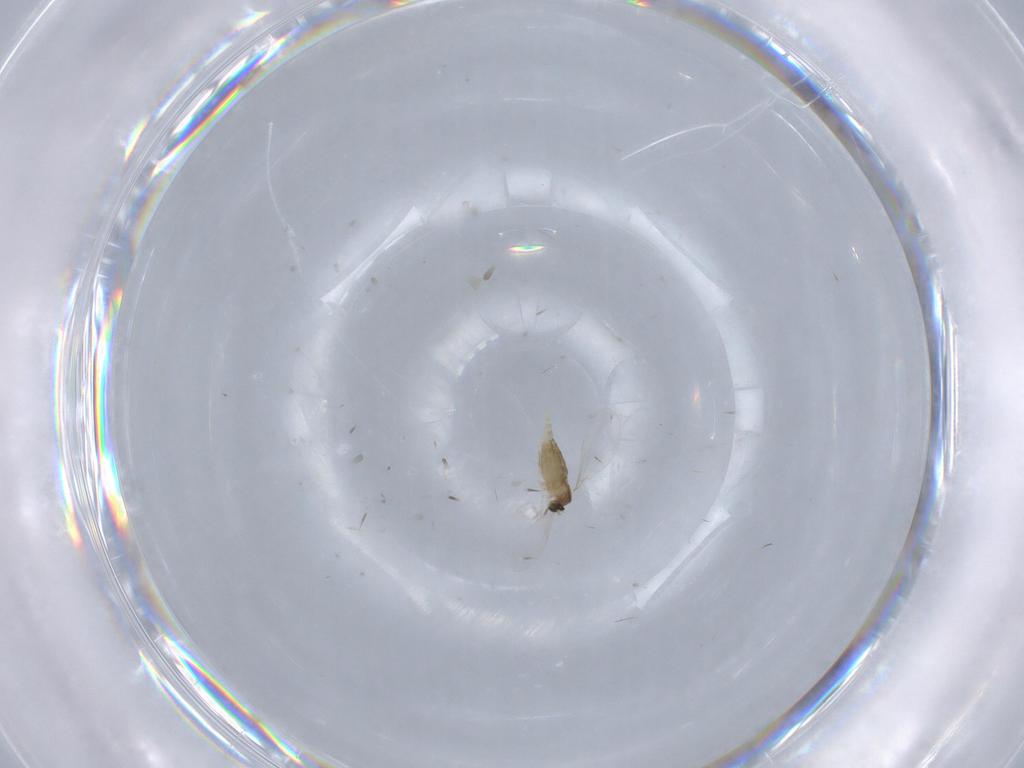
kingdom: Animalia
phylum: Arthropoda
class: Insecta
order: Diptera
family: Cecidomyiidae
